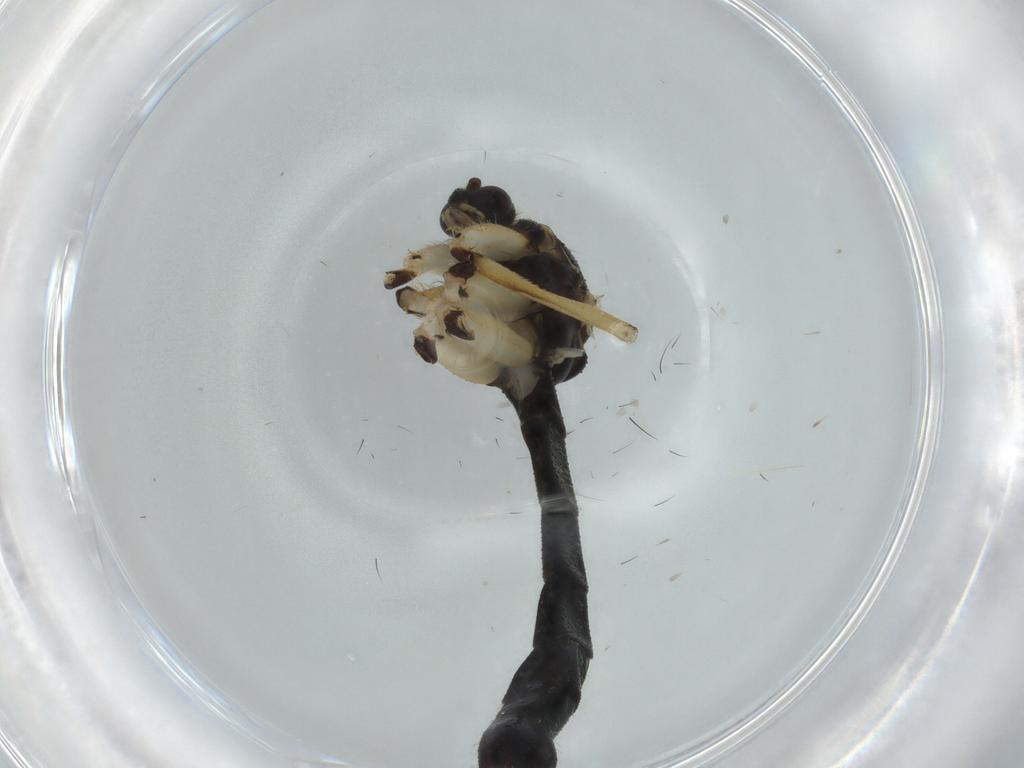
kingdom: Animalia
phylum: Arthropoda
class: Insecta
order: Diptera
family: Mycetophilidae
